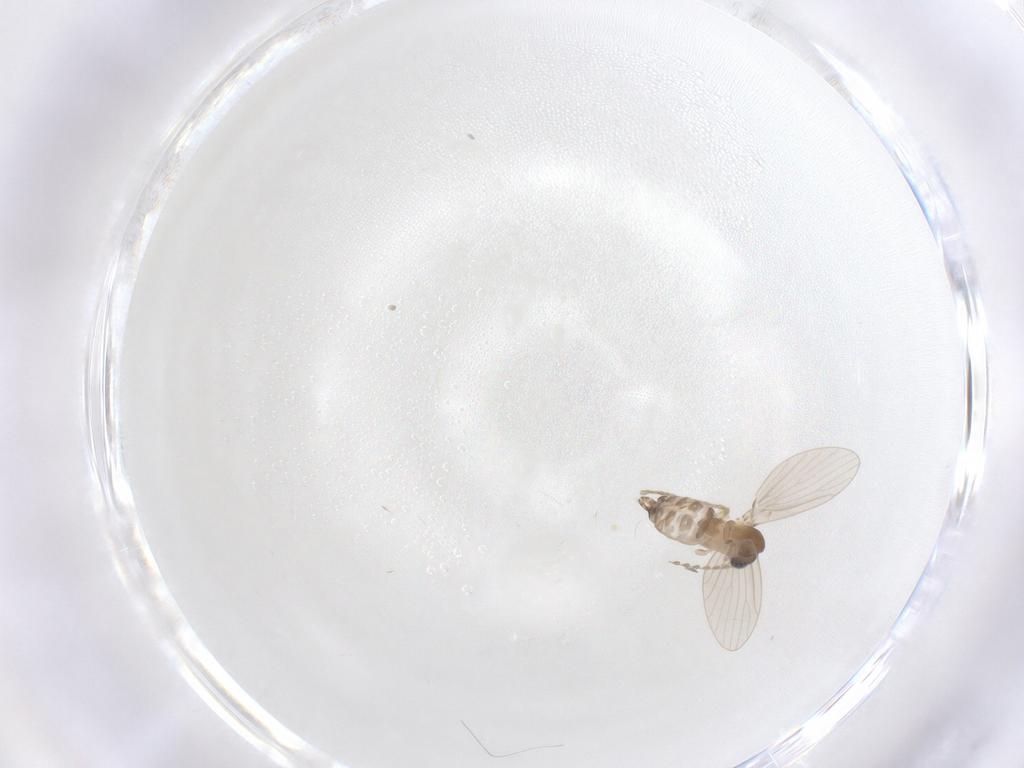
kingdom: Animalia
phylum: Arthropoda
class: Insecta
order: Diptera
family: Cecidomyiidae
